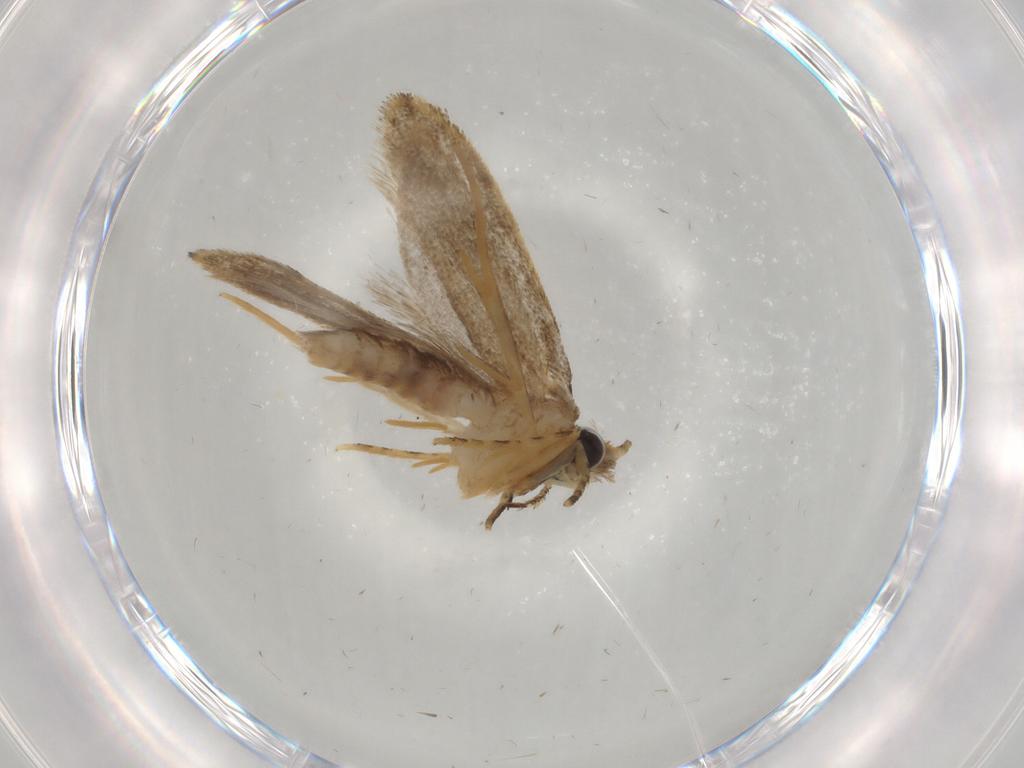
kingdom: Animalia
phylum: Arthropoda
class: Insecta
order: Lepidoptera
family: Nepticulidae
